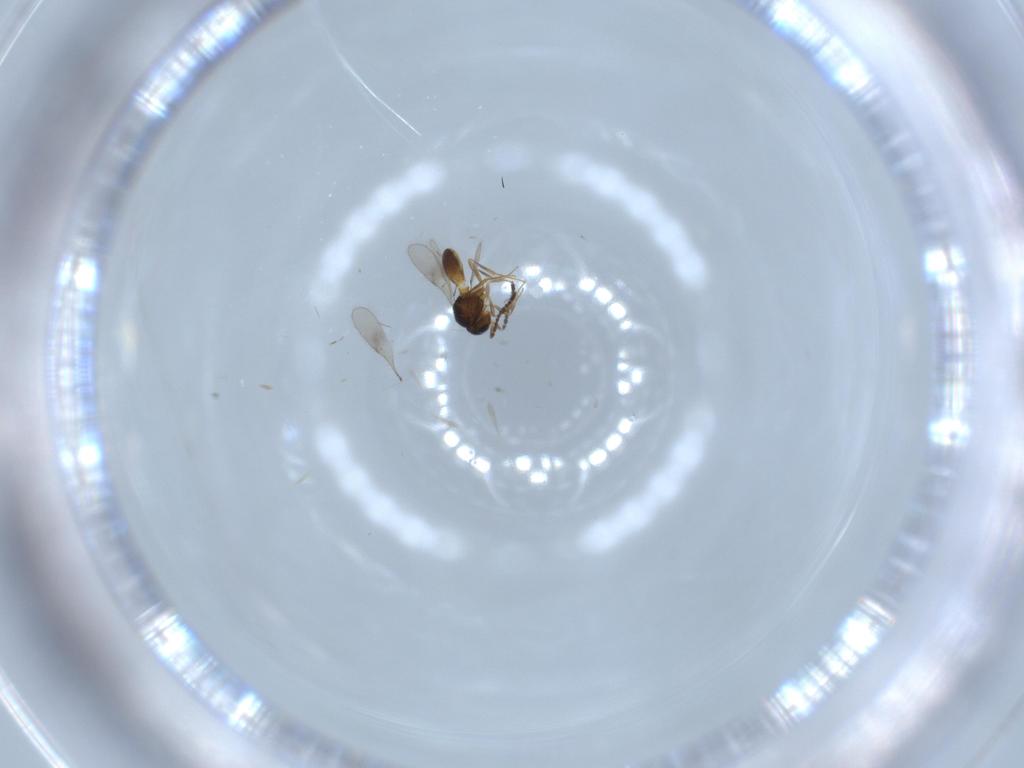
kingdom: Animalia
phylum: Arthropoda
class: Insecta
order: Hymenoptera
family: Scelionidae
